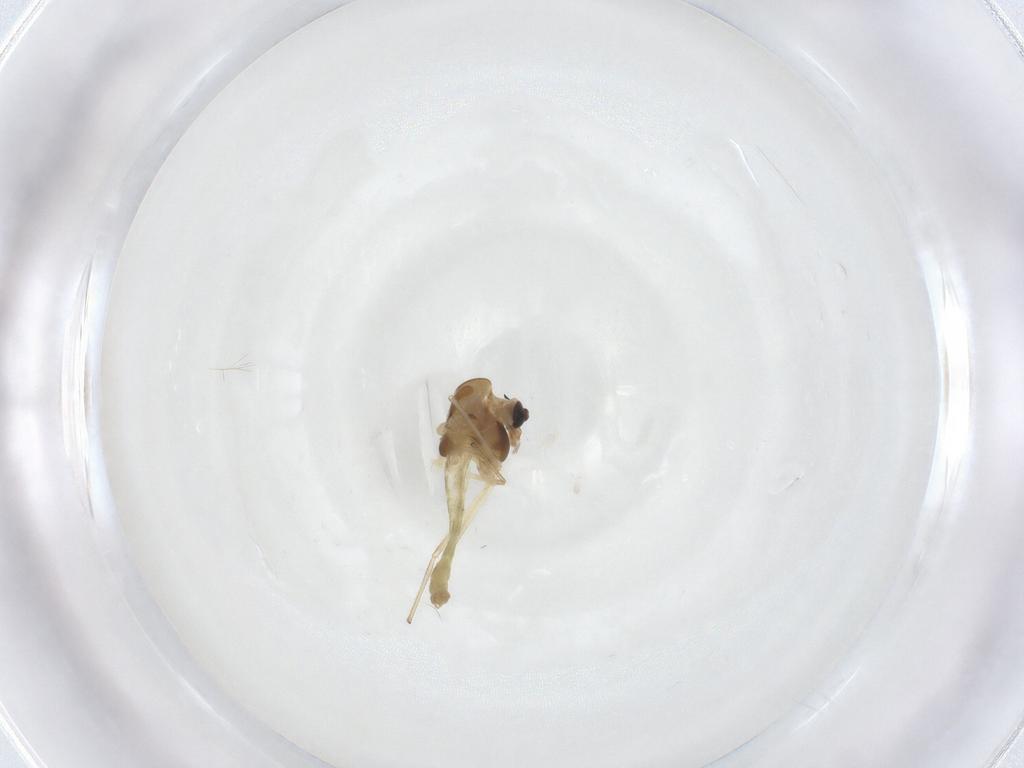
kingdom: Animalia
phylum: Arthropoda
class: Insecta
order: Diptera
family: Chironomidae
